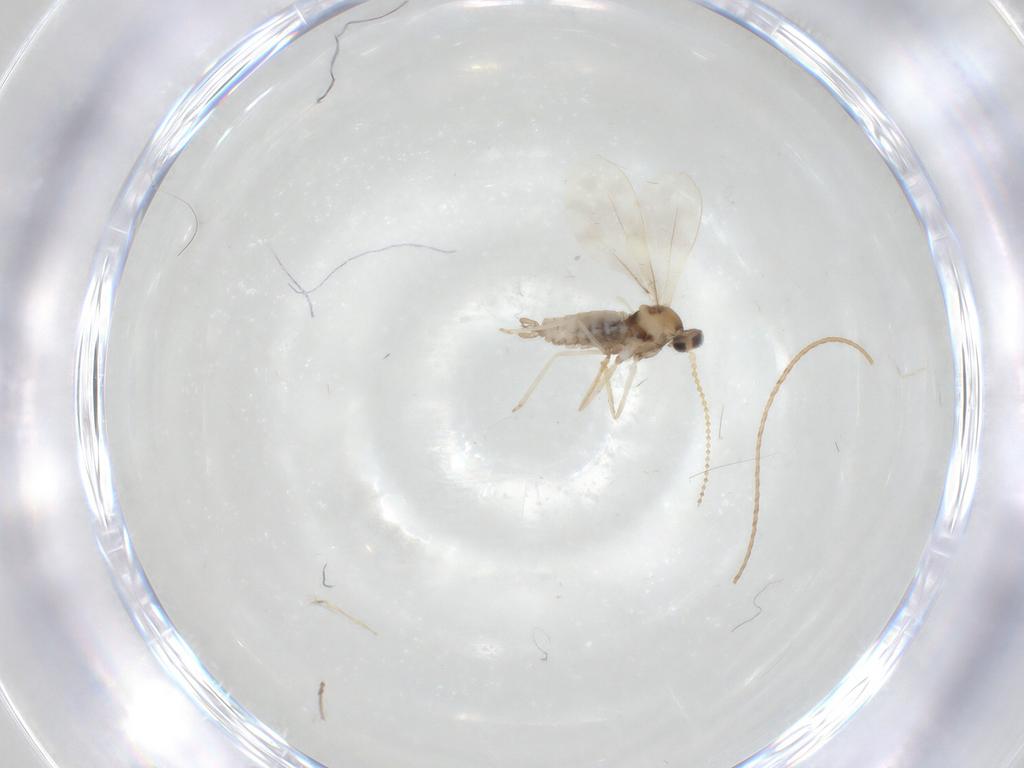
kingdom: Animalia
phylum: Arthropoda
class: Insecta
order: Diptera
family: Cecidomyiidae
